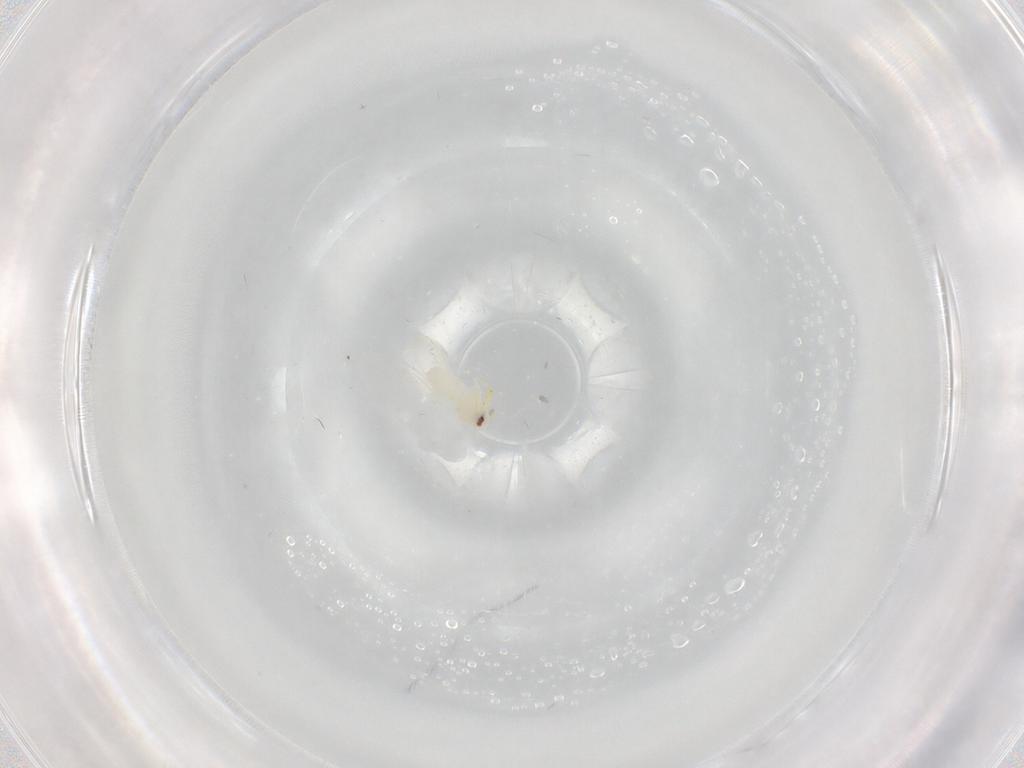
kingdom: Animalia
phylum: Arthropoda
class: Insecta
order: Hemiptera
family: Aleyrodidae
